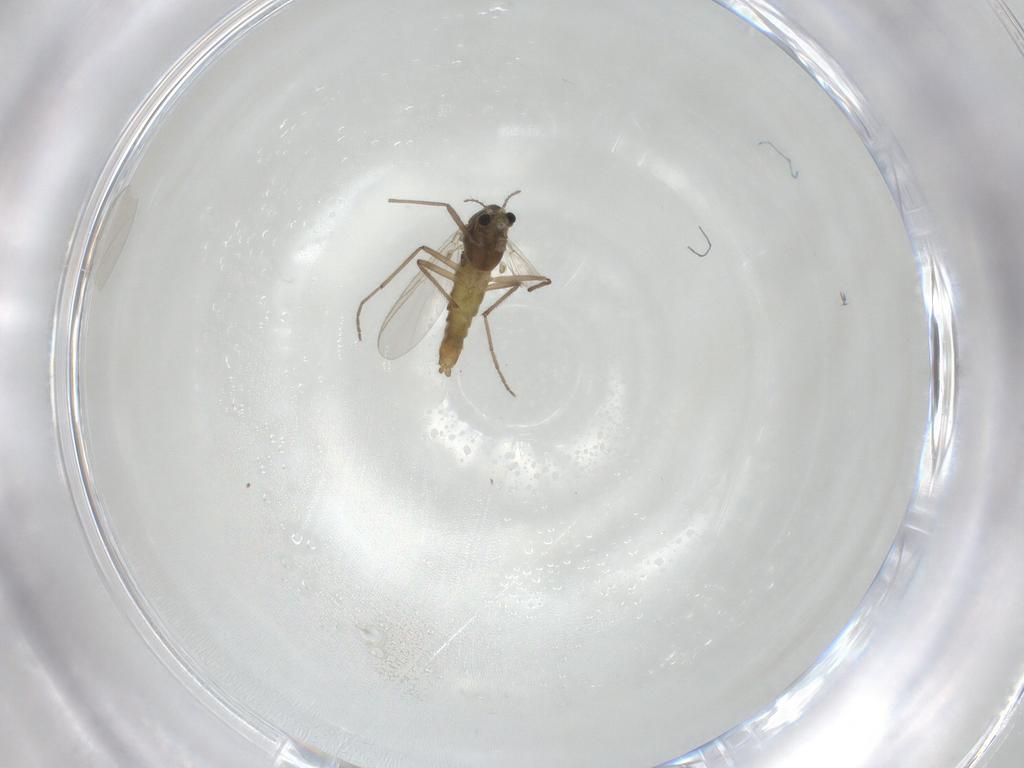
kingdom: Animalia
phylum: Arthropoda
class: Insecta
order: Diptera
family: Chironomidae
